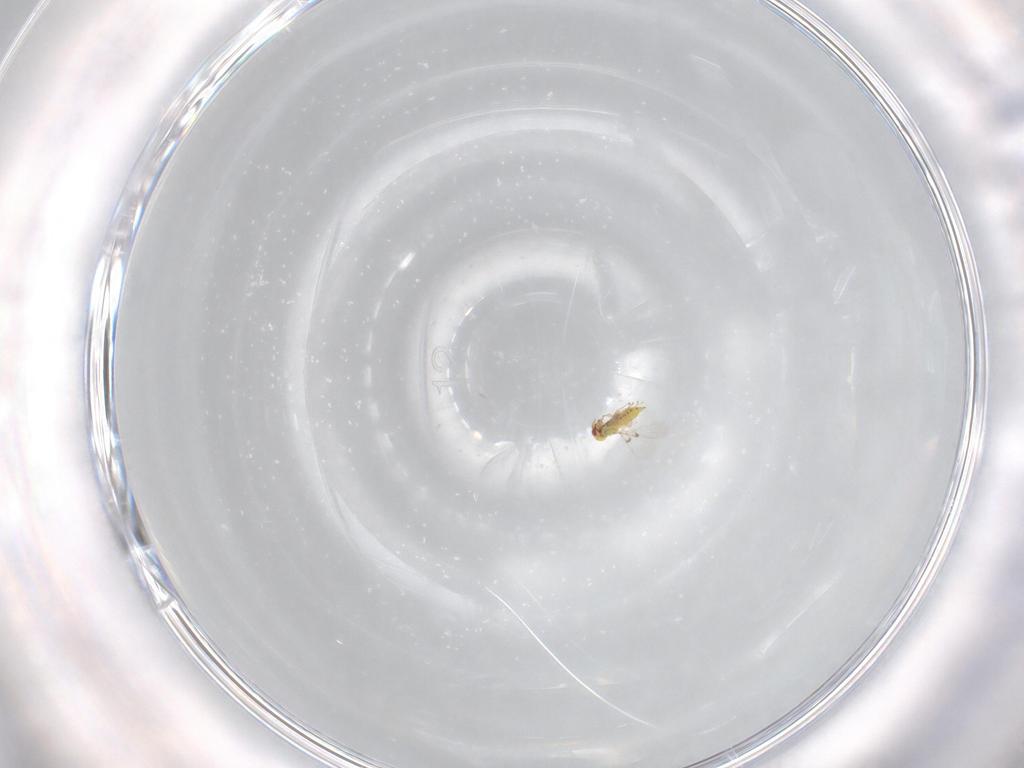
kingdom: Animalia
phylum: Arthropoda
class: Insecta
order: Hymenoptera
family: Trichogrammatidae
